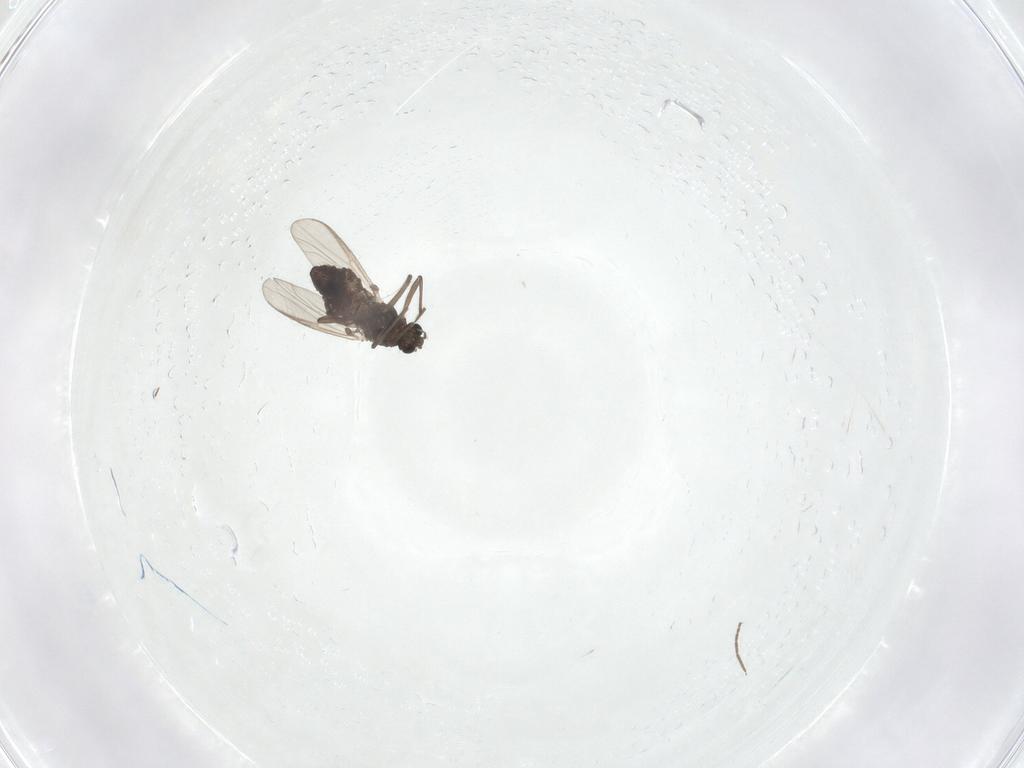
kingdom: Animalia
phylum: Arthropoda
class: Insecta
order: Diptera
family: Chironomidae
